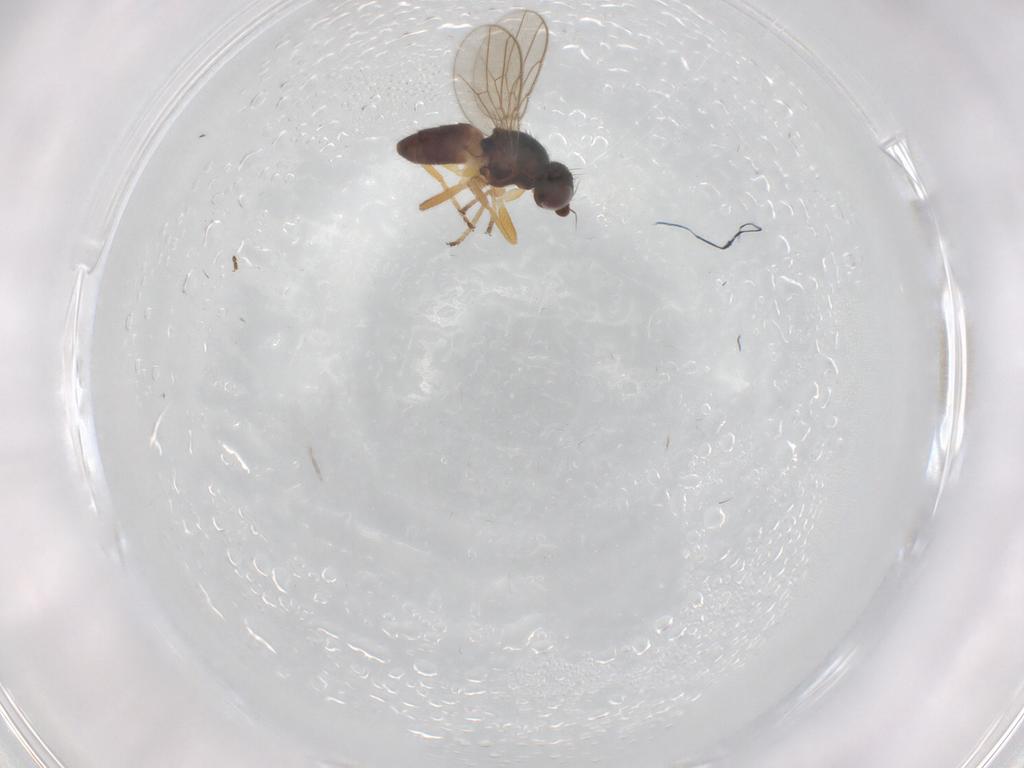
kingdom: Animalia
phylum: Arthropoda
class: Insecta
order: Diptera
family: Chloropidae
